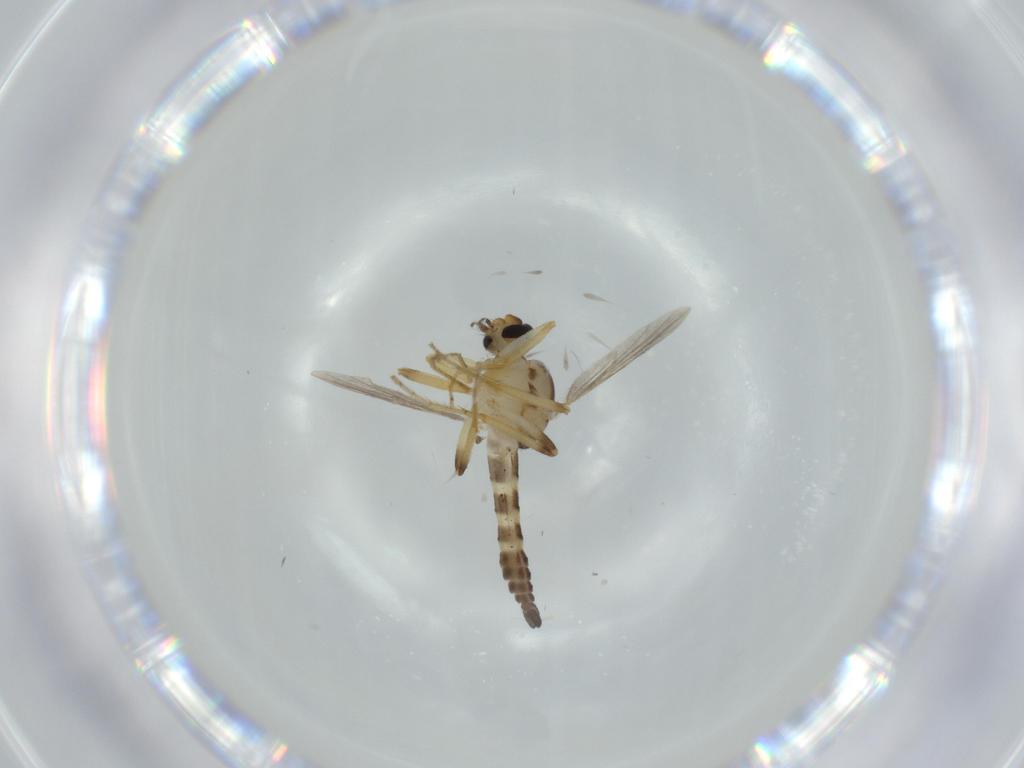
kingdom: Animalia
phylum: Arthropoda
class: Insecta
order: Diptera
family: Ceratopogonidae
